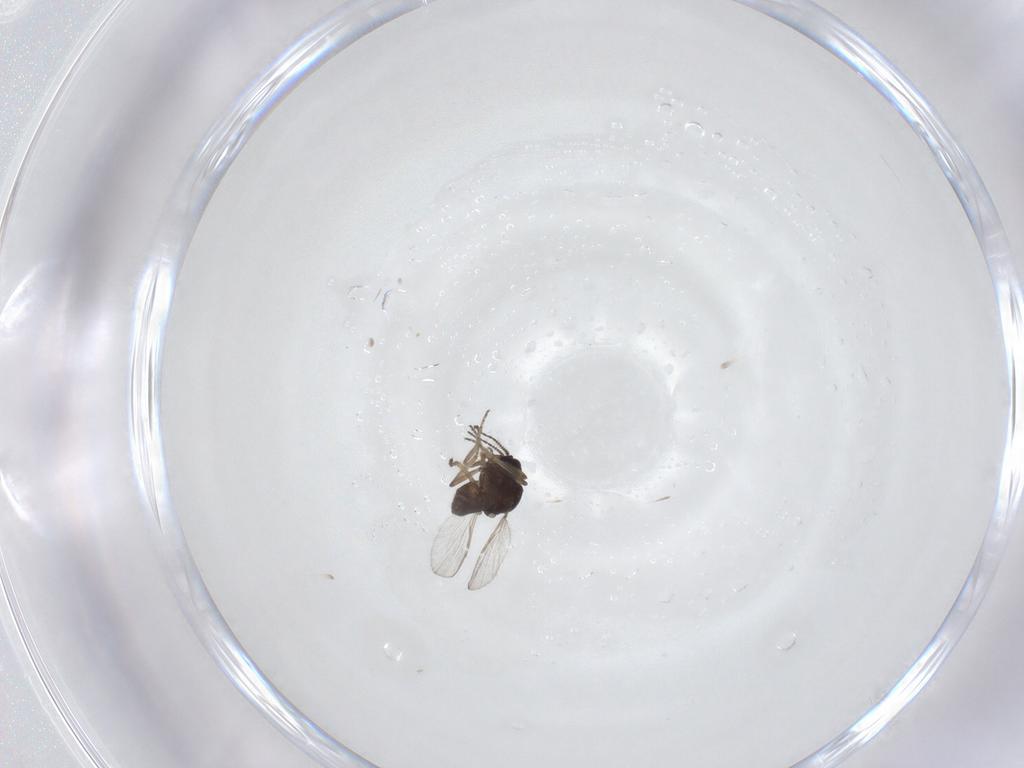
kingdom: Animalia
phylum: Arthropoda
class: Insecta
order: Diptera
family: Ceratopogonidae
